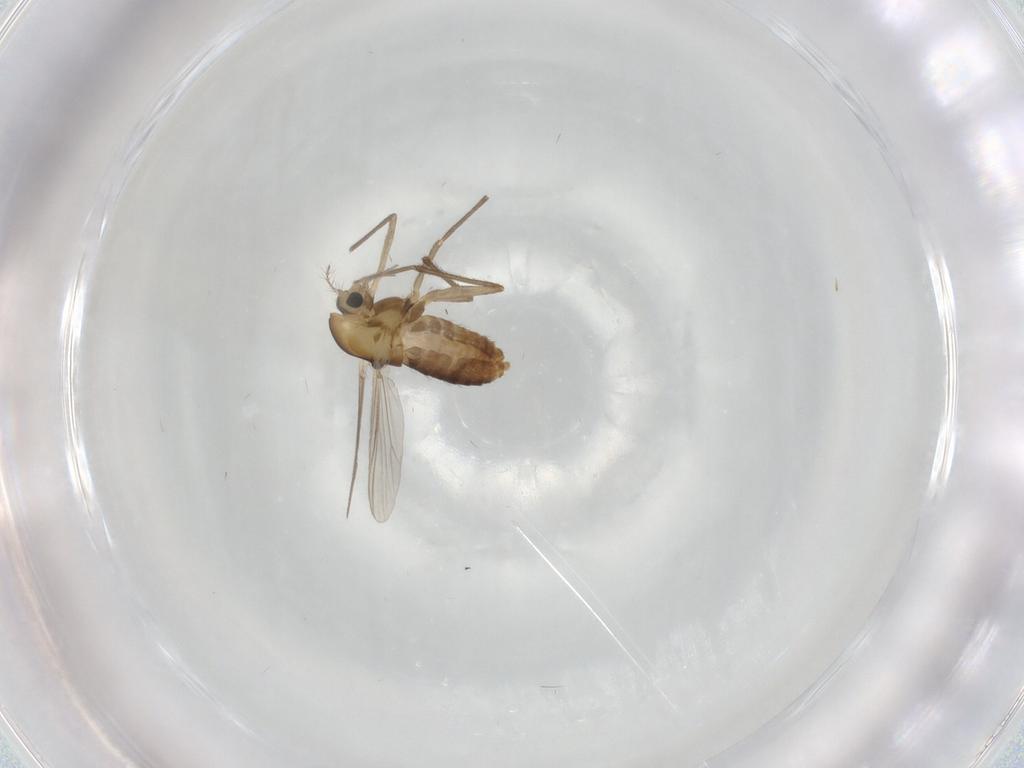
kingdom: Animalia
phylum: Arthropoda
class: Insecta
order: Diptera
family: Chironomidae
